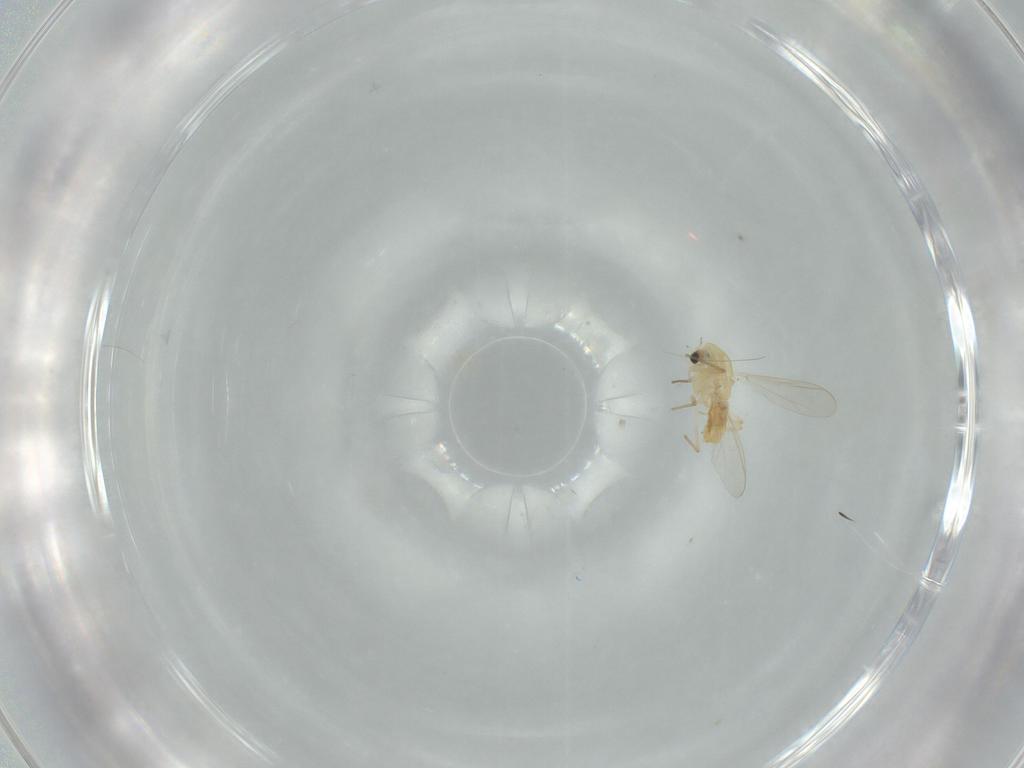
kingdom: Animalia
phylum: Arthropoda
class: Insecta
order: Diptera
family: Chironomidae
